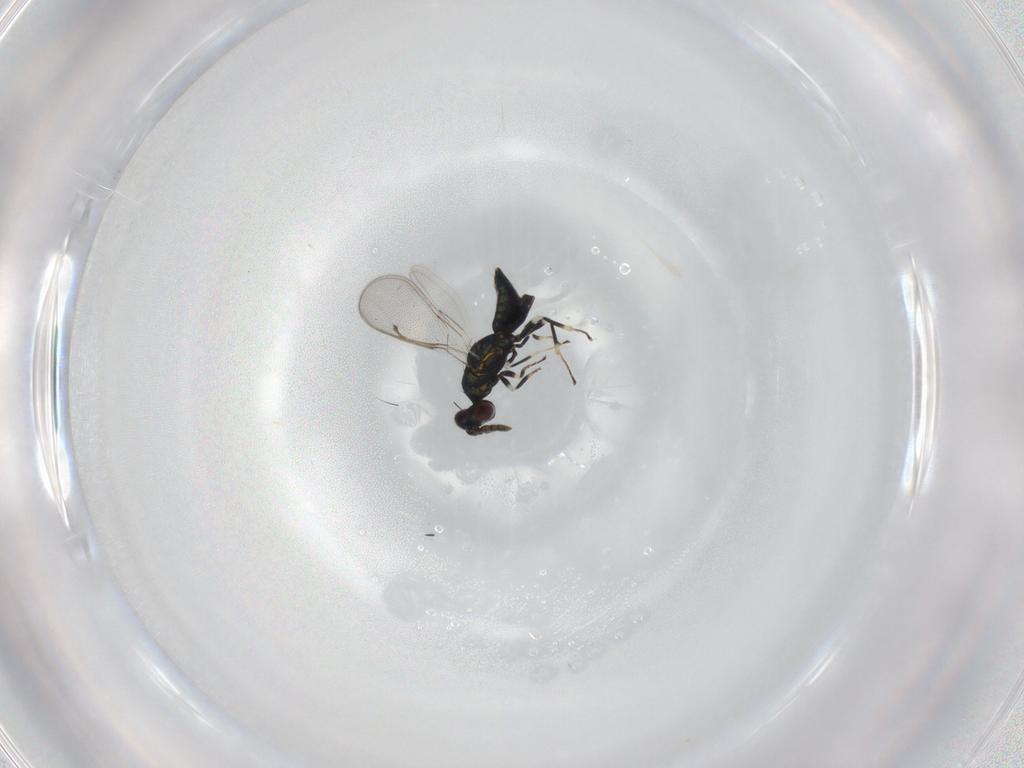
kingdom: Animalia
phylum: Arthropoda
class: Insecta
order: Hymenoptera
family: Eulophidae
